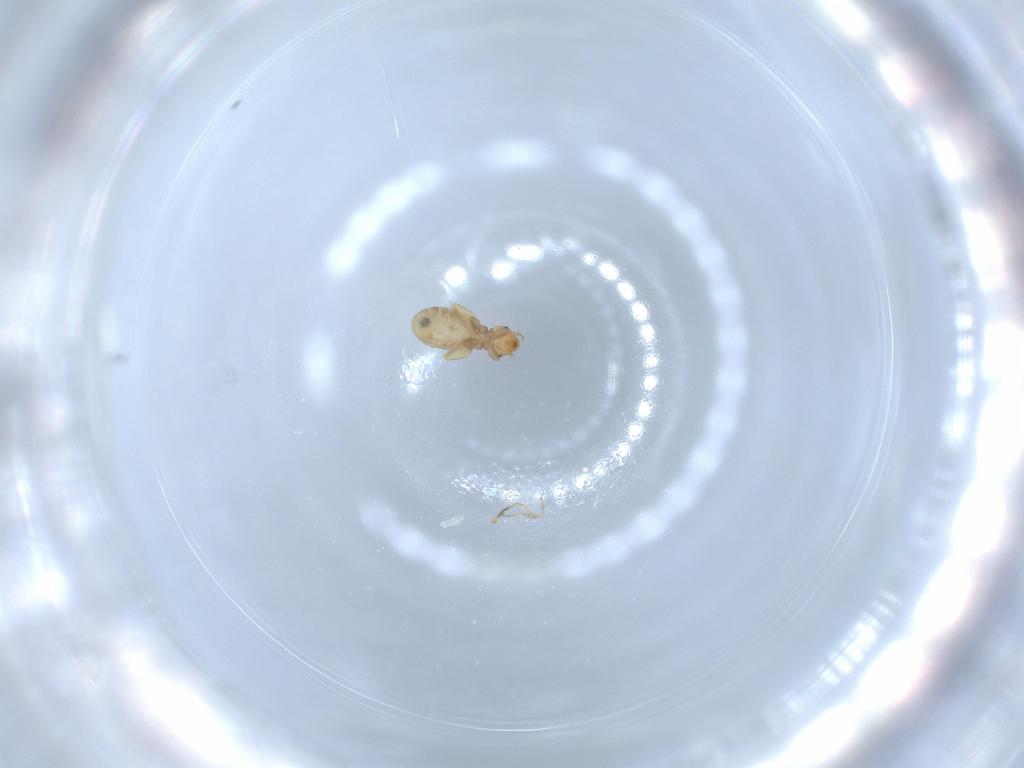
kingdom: Animalia
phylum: Arthropoda
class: Insecta
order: Psocodea
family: Liposcelididae
